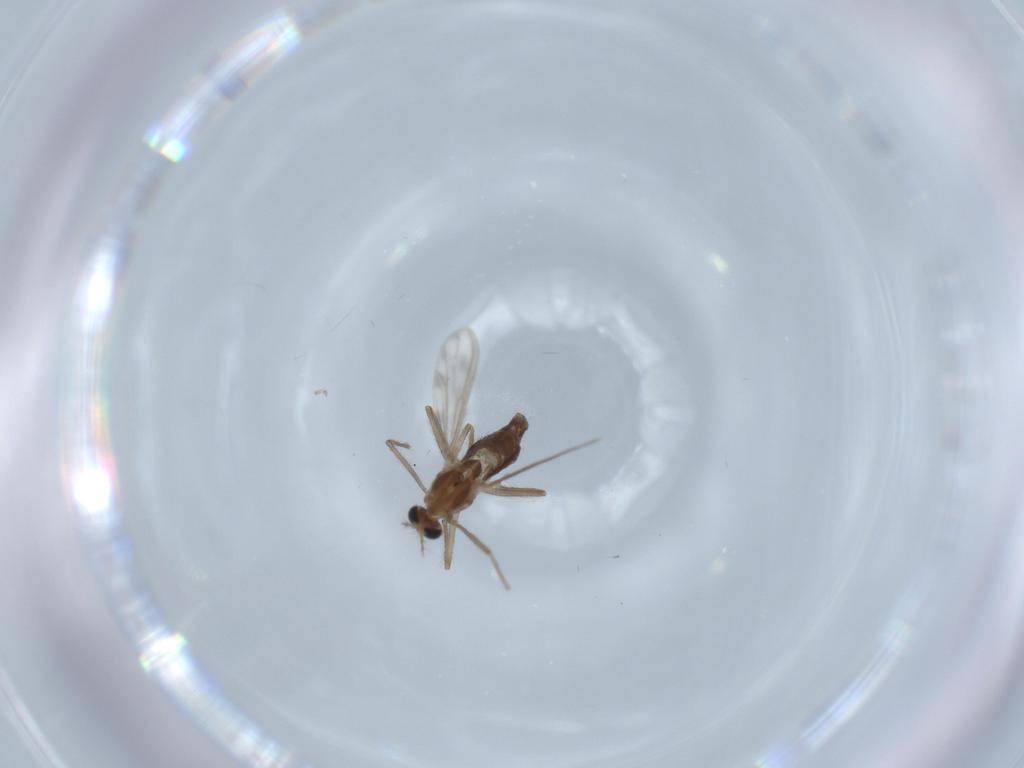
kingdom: Animalia
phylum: Arthropoda
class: Insecta
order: Diptera
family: Chironomidae
